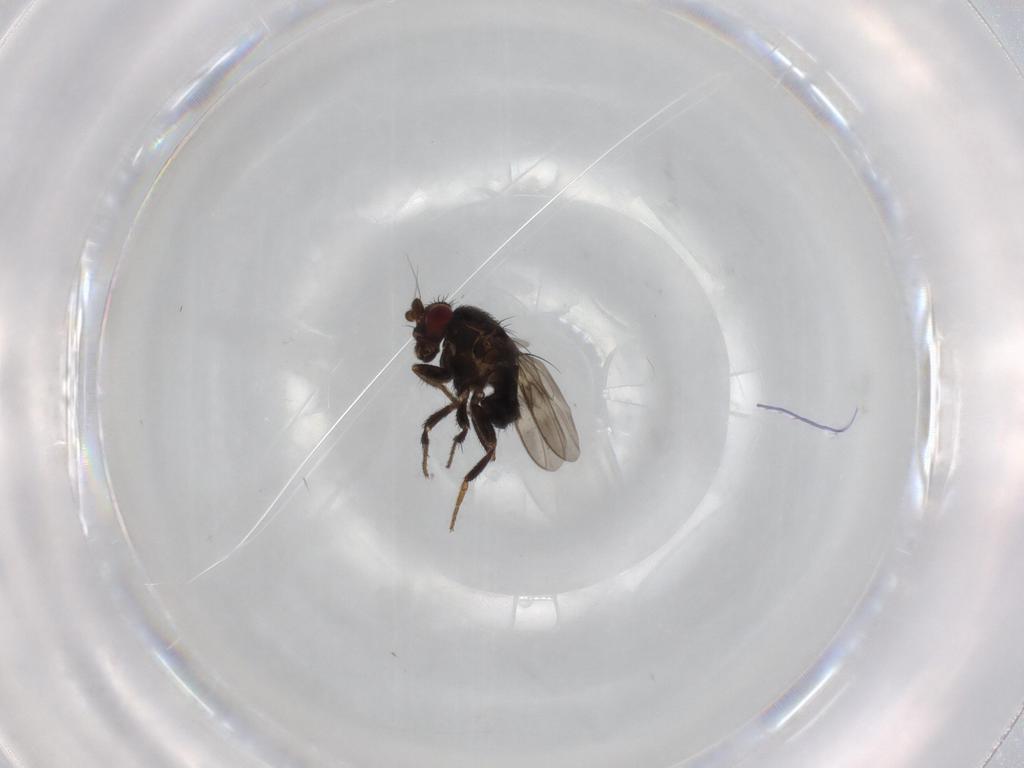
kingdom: Animalia
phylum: Arthropoda
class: Insecta
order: Diptera
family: Sphaeroceridae
